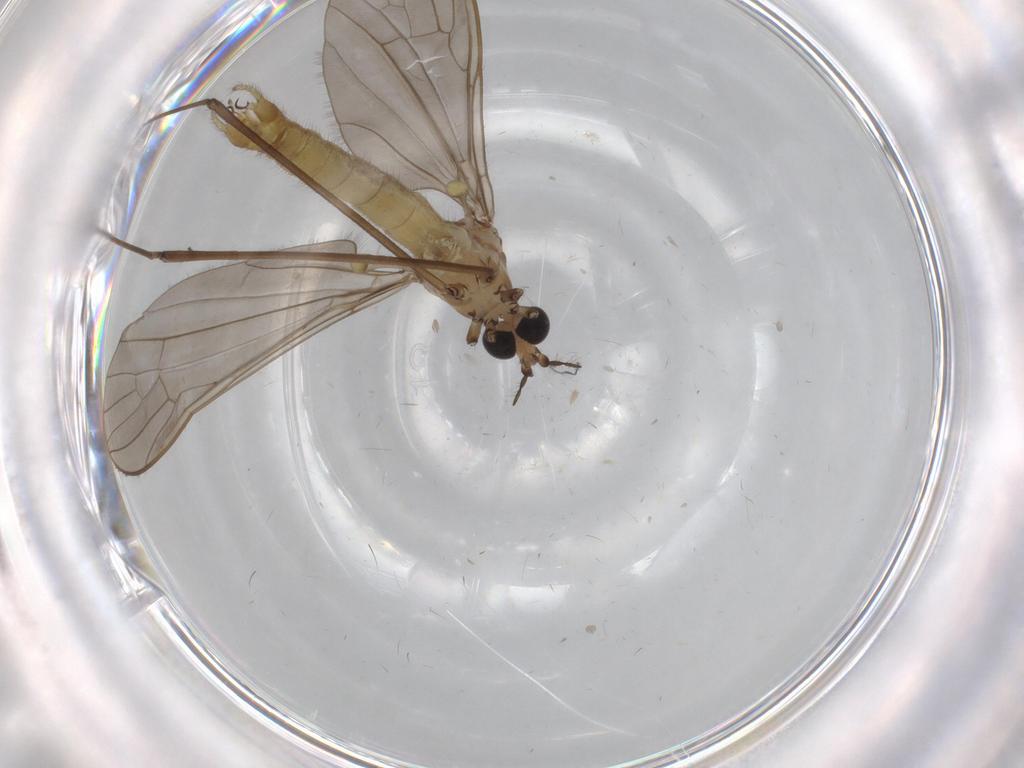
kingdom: Animalia
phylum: Arthropoda
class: Insecta
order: Diptera
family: Limoniidae
